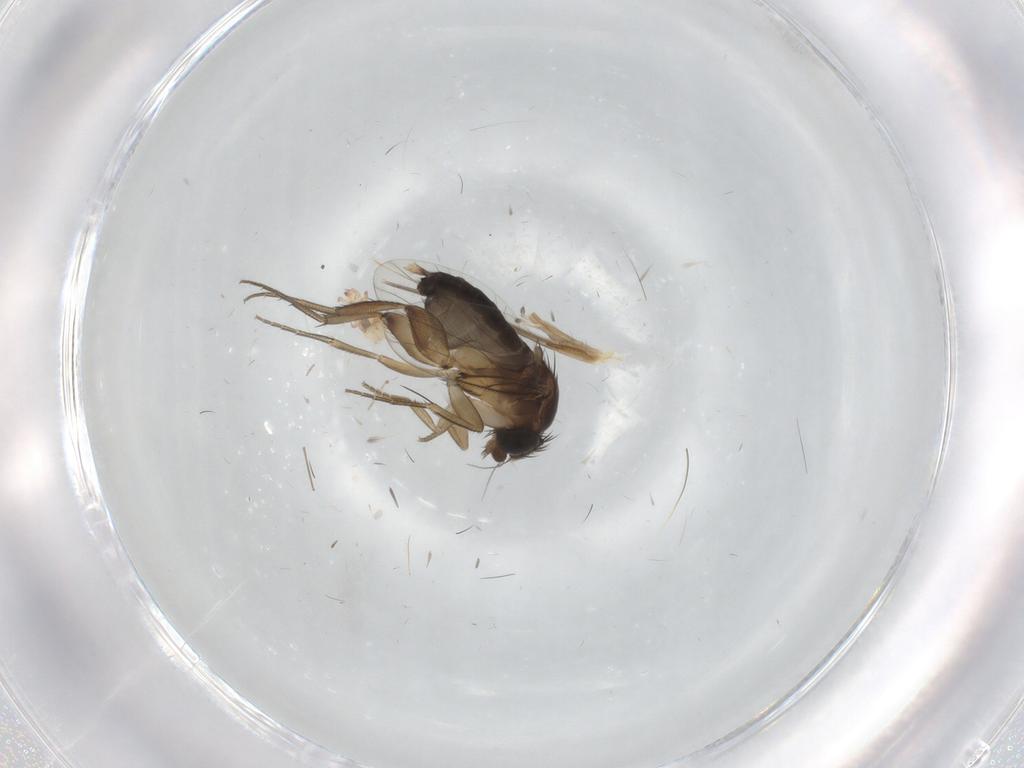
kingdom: Animalia
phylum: Arthropoda
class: Insecta
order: Diptera
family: Phoridae
